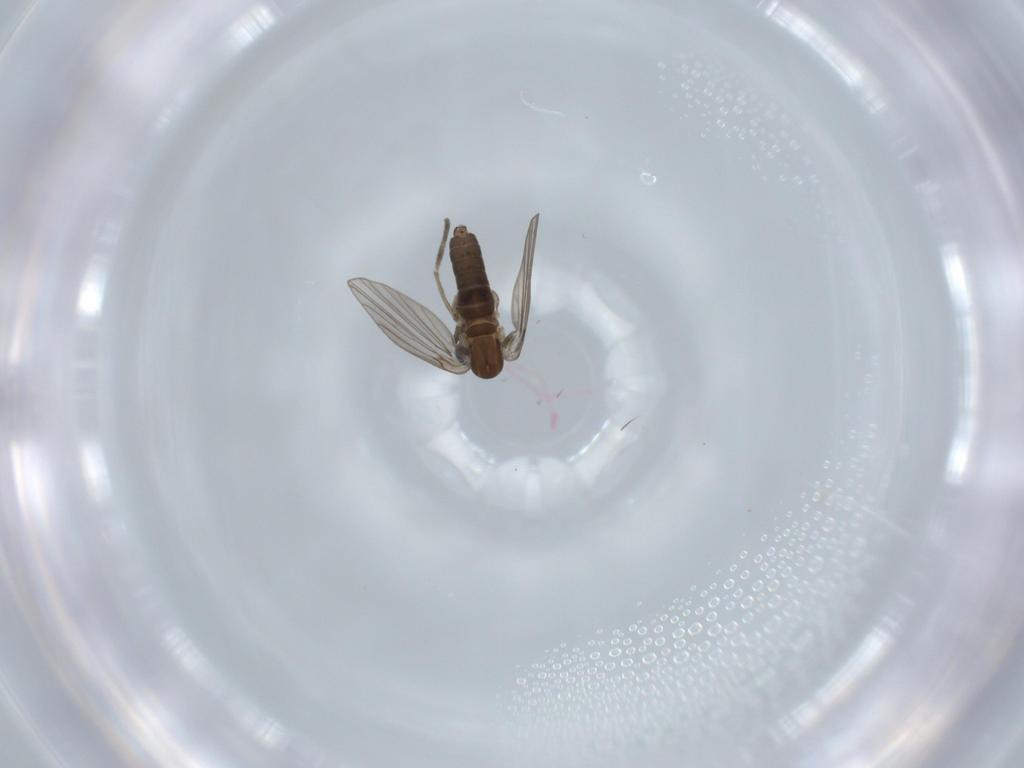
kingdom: Animalia
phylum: Arthropoda
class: Insecta
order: Diptera
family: Psychodidae
